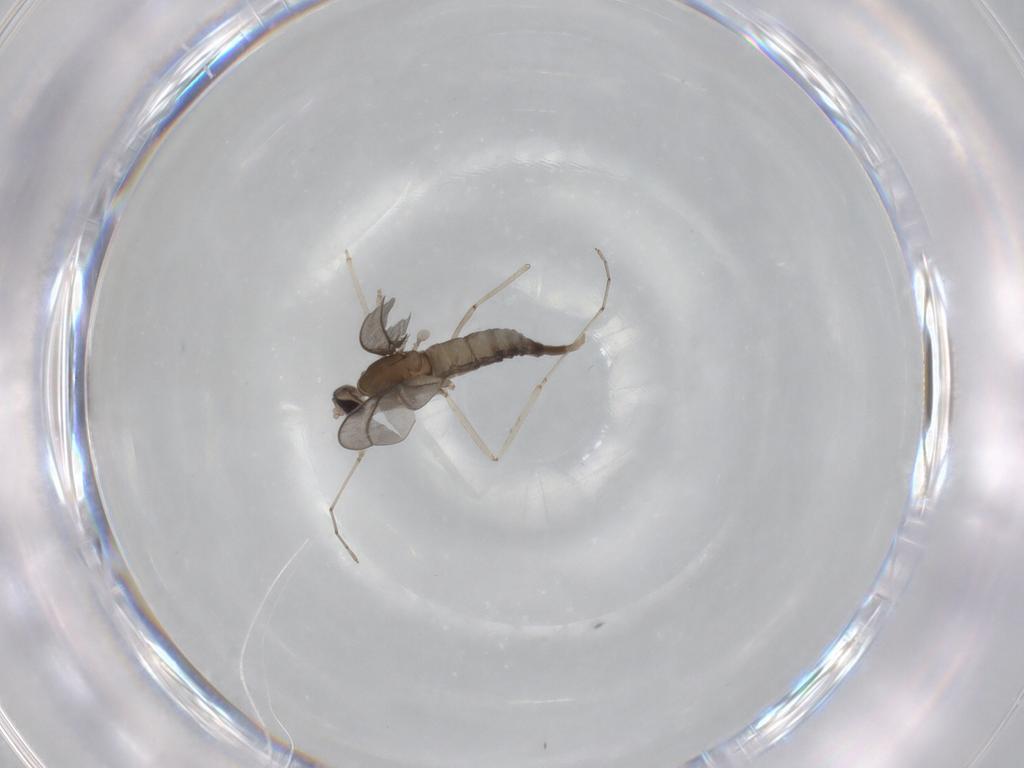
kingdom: Animalia
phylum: Arthropoda
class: Insecta
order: Diptera
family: Cecidomyiidae
